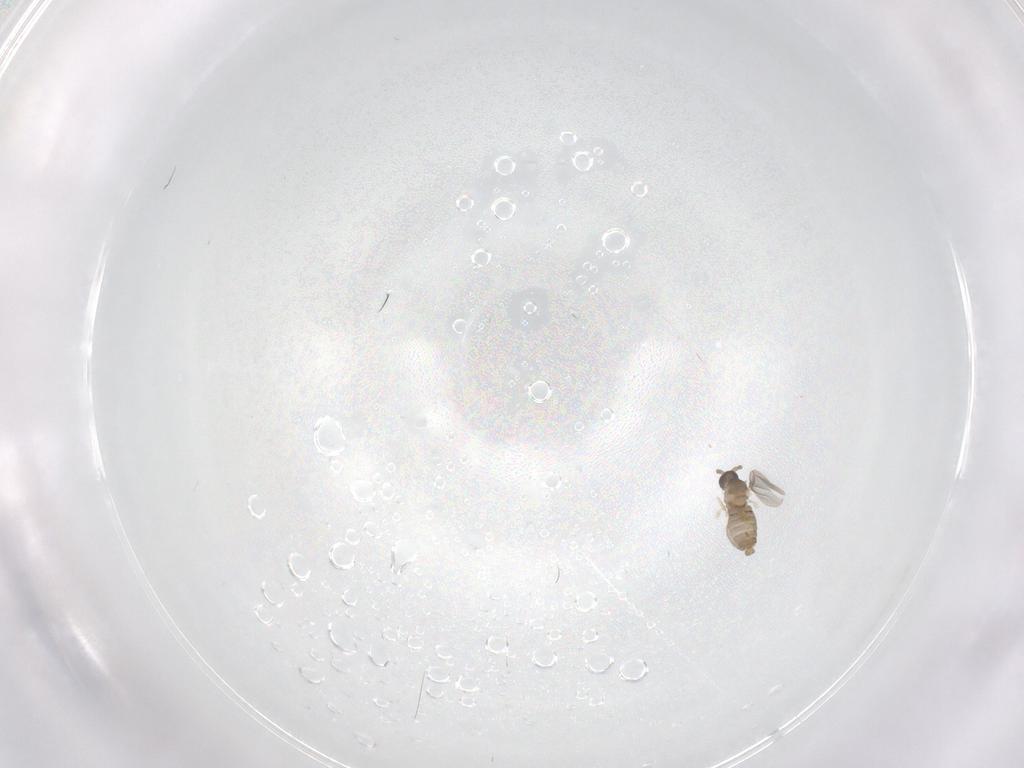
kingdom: Animalia
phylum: Arthropoda
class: Insecta
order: Diptera
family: Cecidomyiidae
